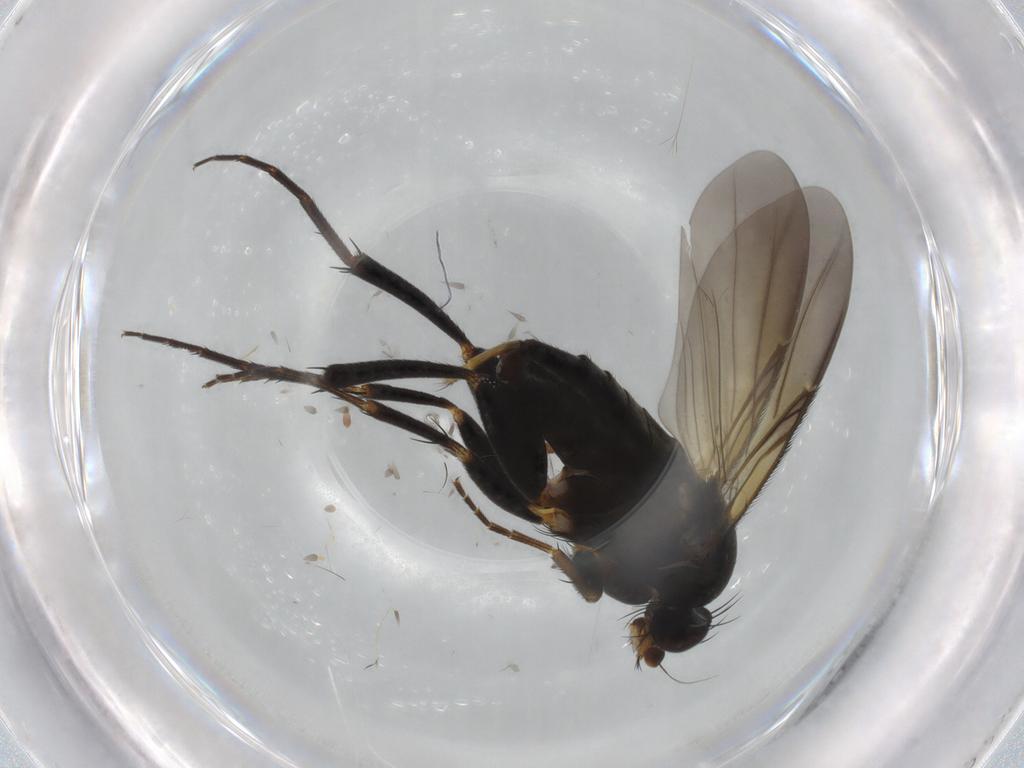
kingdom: Animalia
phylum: Arthropoda
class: Insecta
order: Diptera
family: Phoridae
